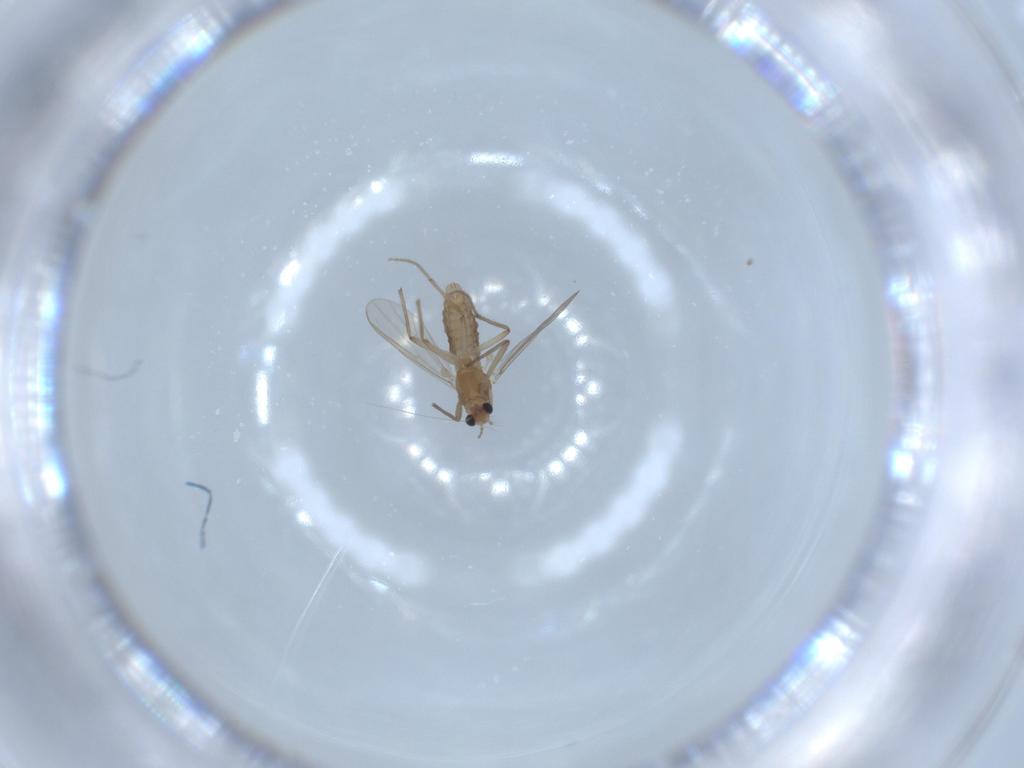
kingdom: Animalia
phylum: Arthropoda
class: Insecta
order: Diptera
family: Chironomidae
